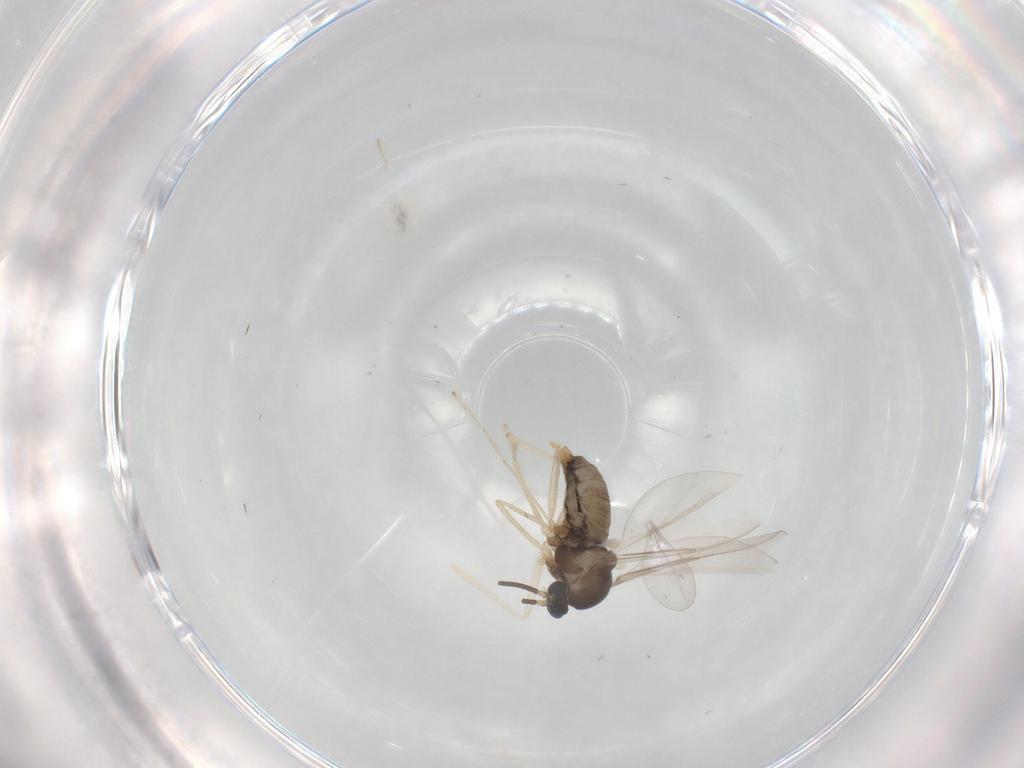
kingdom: Animalia
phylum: Arthropoda
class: Insecta
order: Diptera
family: Cecidomyiidae
